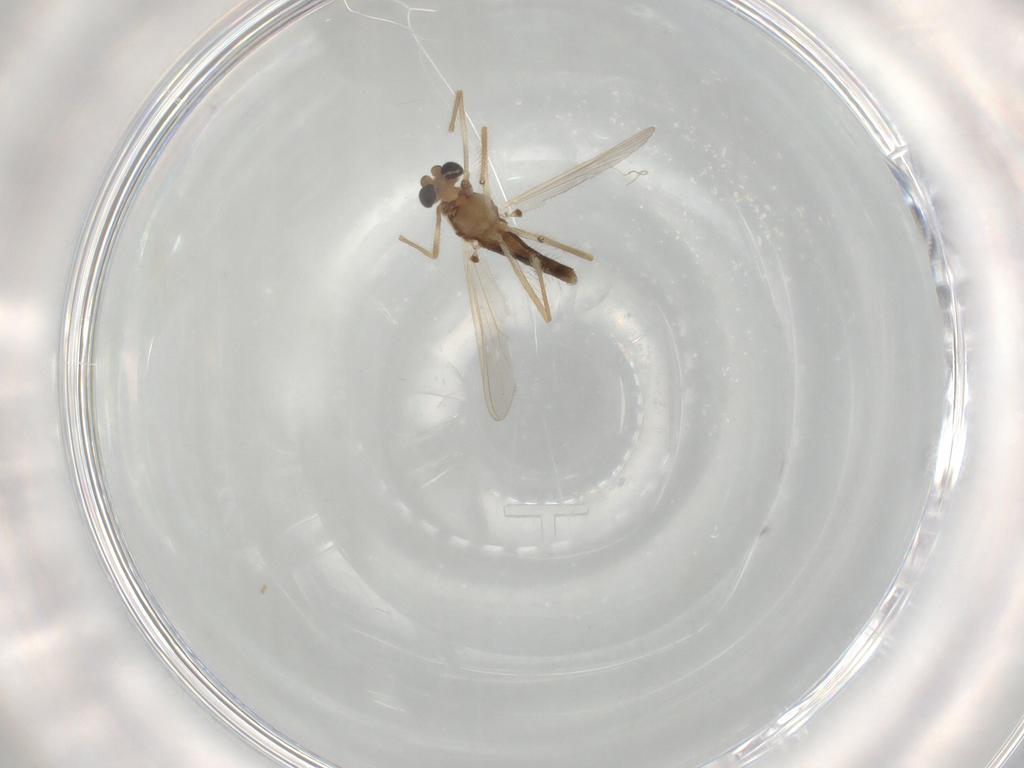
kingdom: Animalia
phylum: Arthropoda
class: Insecta
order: Diptera
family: Chironomidae
